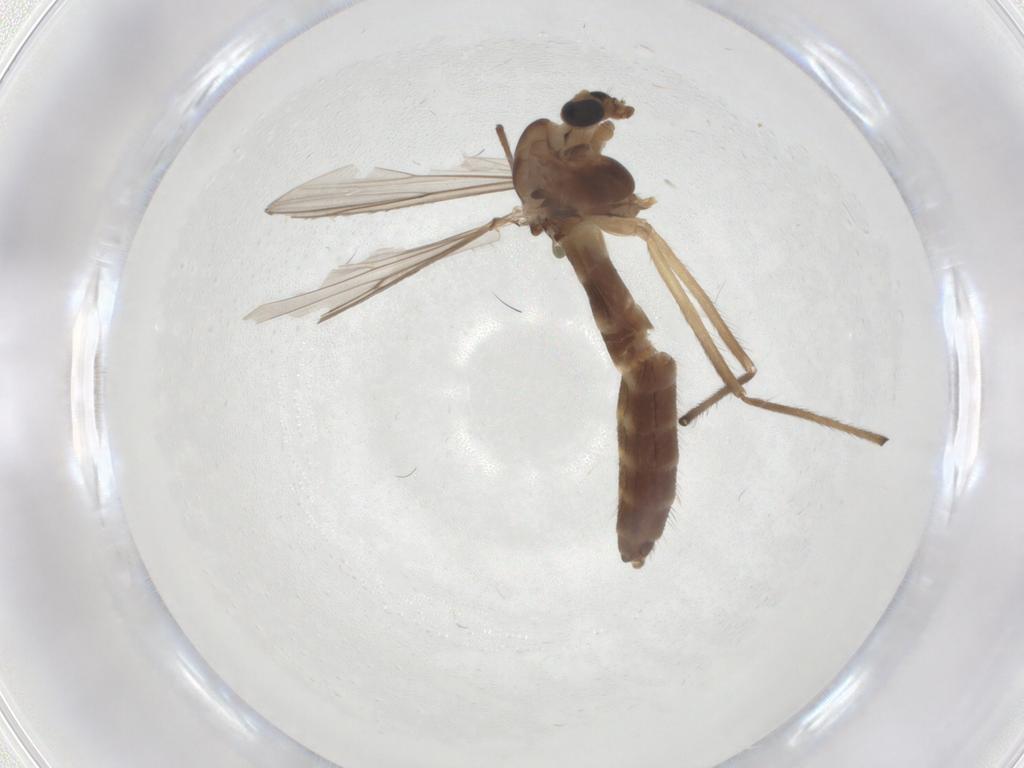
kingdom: Animalia
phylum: Arthropoda
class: Insecta
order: Diptera
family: Chironomidae
